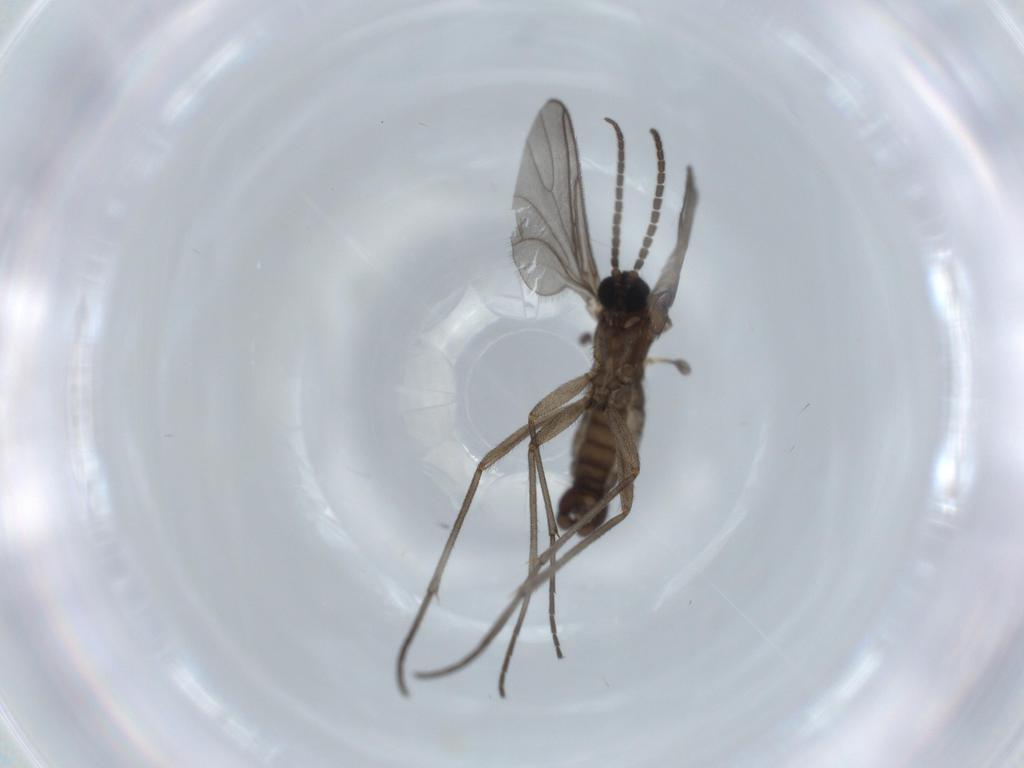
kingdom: Animalia
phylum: Arthropoda
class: Insecta
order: Diptera
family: Sciaridae
